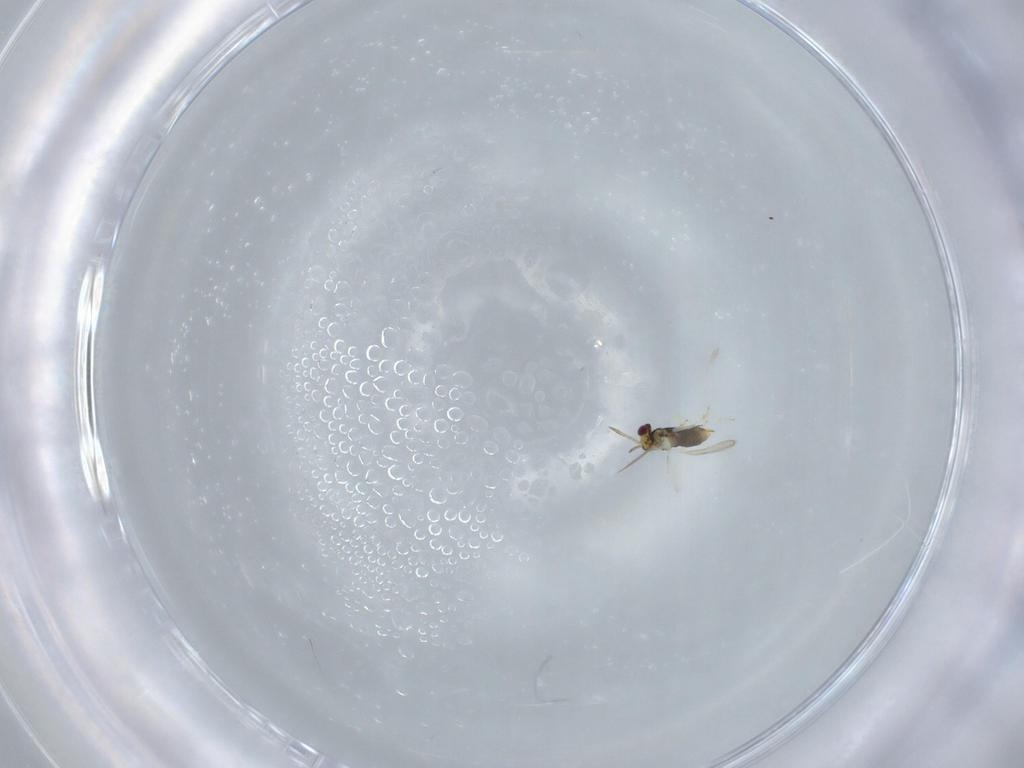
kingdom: Animalia
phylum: Arthropoda
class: Insecta
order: Hymenoptera
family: Aphelinidae
